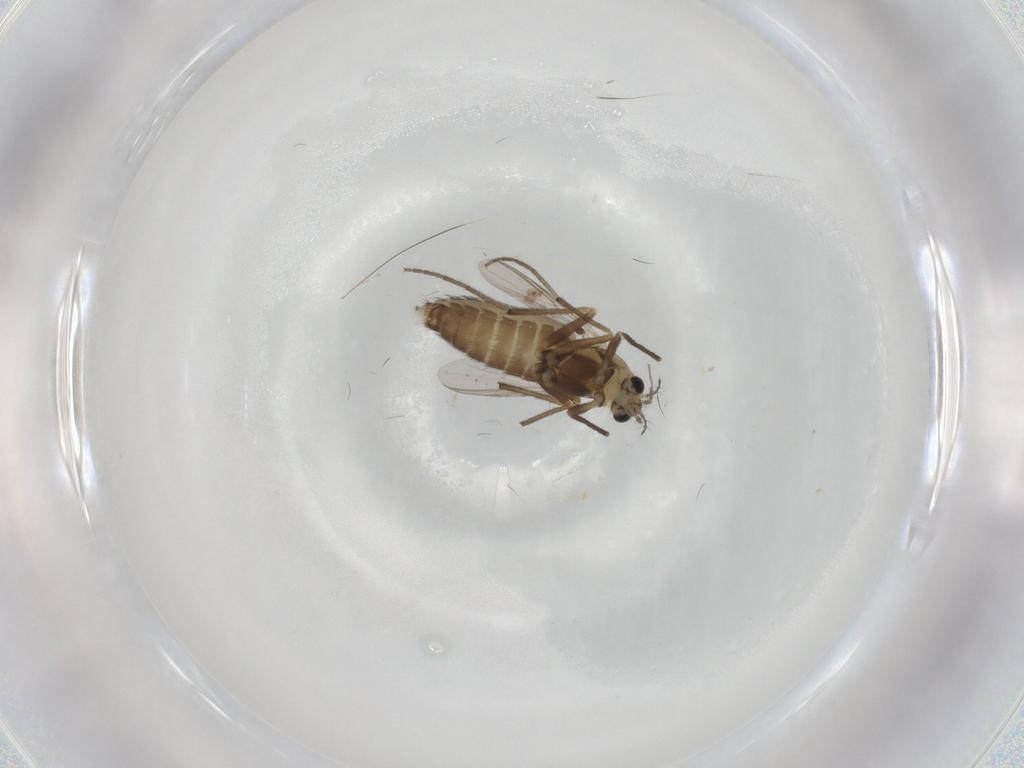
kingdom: Animalia
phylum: Arthropoda
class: Insecta
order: Diptera
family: Chironomidae
